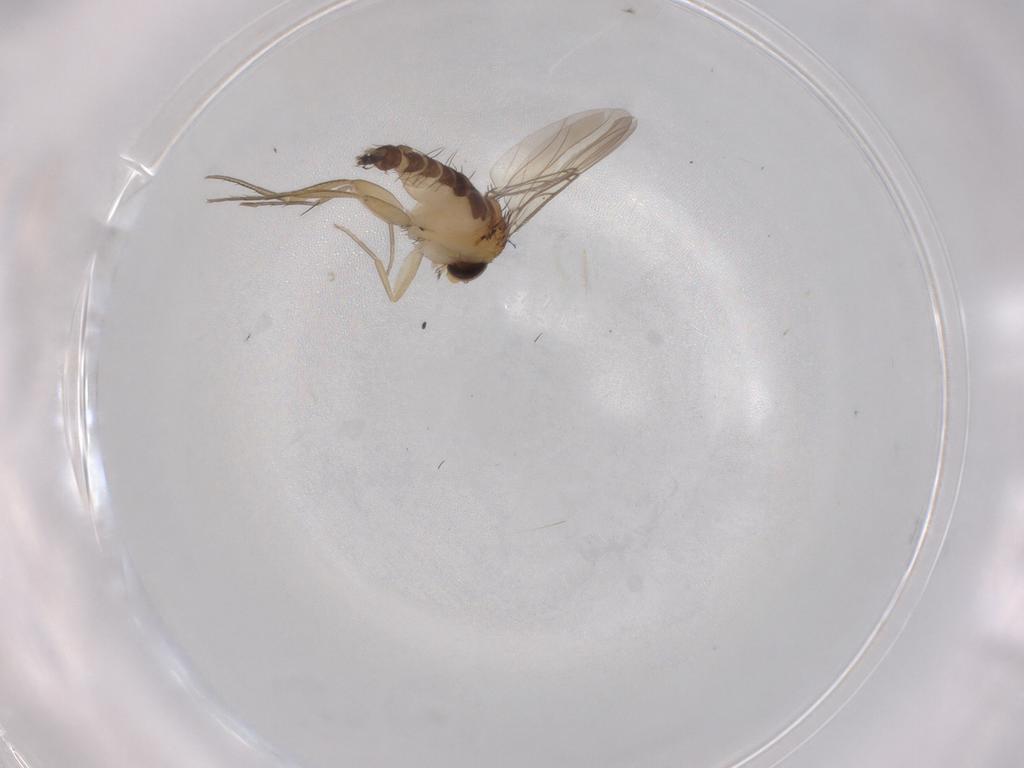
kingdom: Animalia
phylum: Arthropoda
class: Insecta
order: Diptera
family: Phoridae
